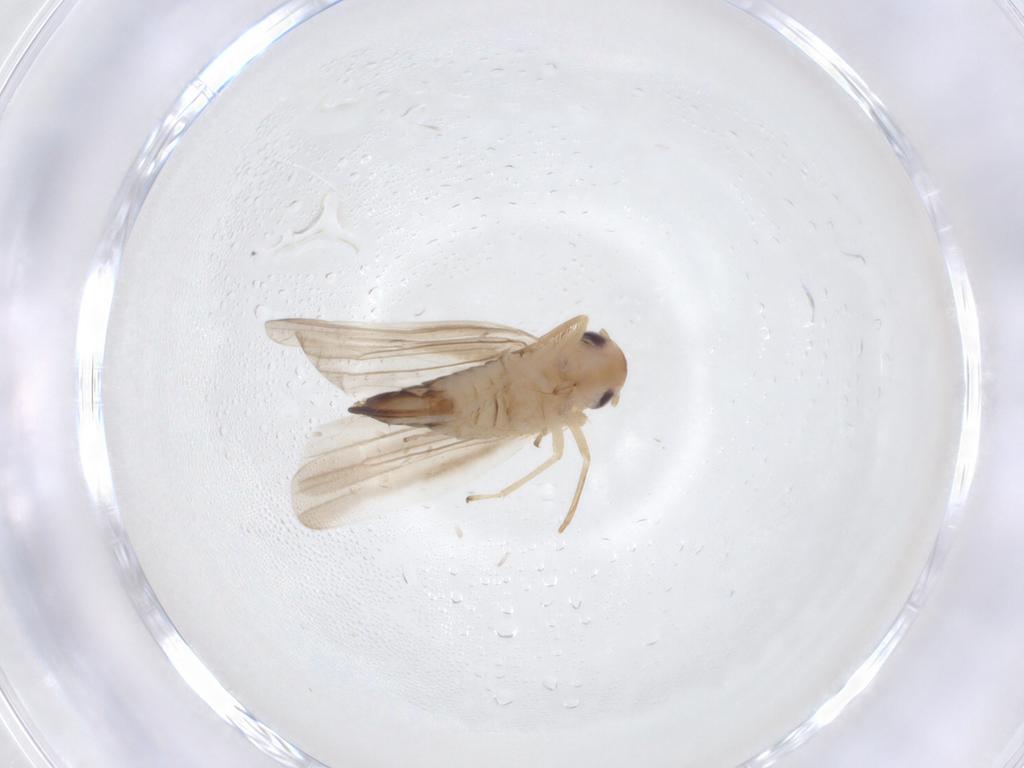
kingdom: Animalia
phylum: Arthropoda
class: Insecta
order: Hemiptera
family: Cicadellidae
